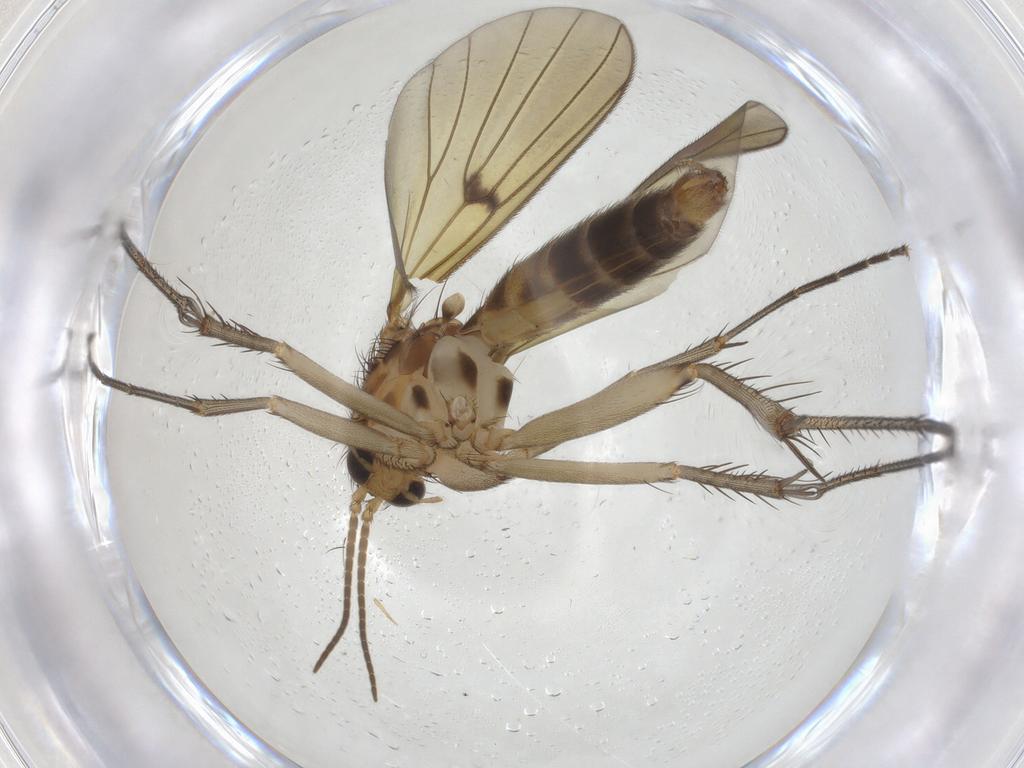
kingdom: Animalia
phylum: Arthropoda
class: Insecta
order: Diptera
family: Mycetophilidae
